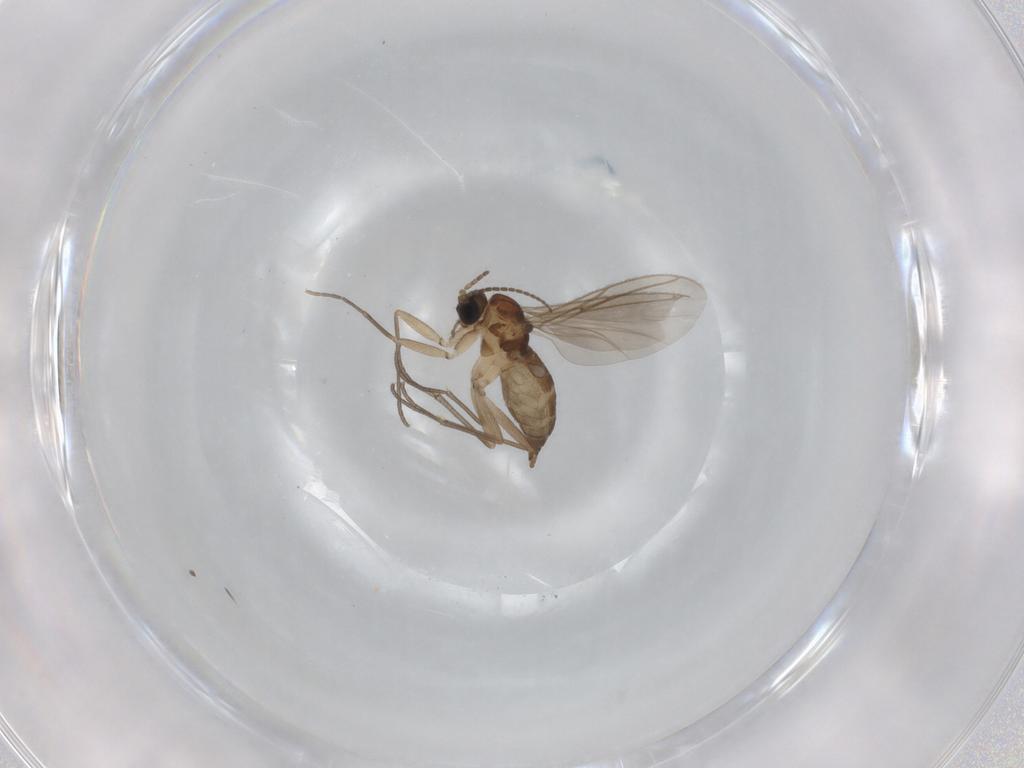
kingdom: Animalia
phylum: Arthropoda
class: Insecta
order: Diptera
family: Sciaridae
